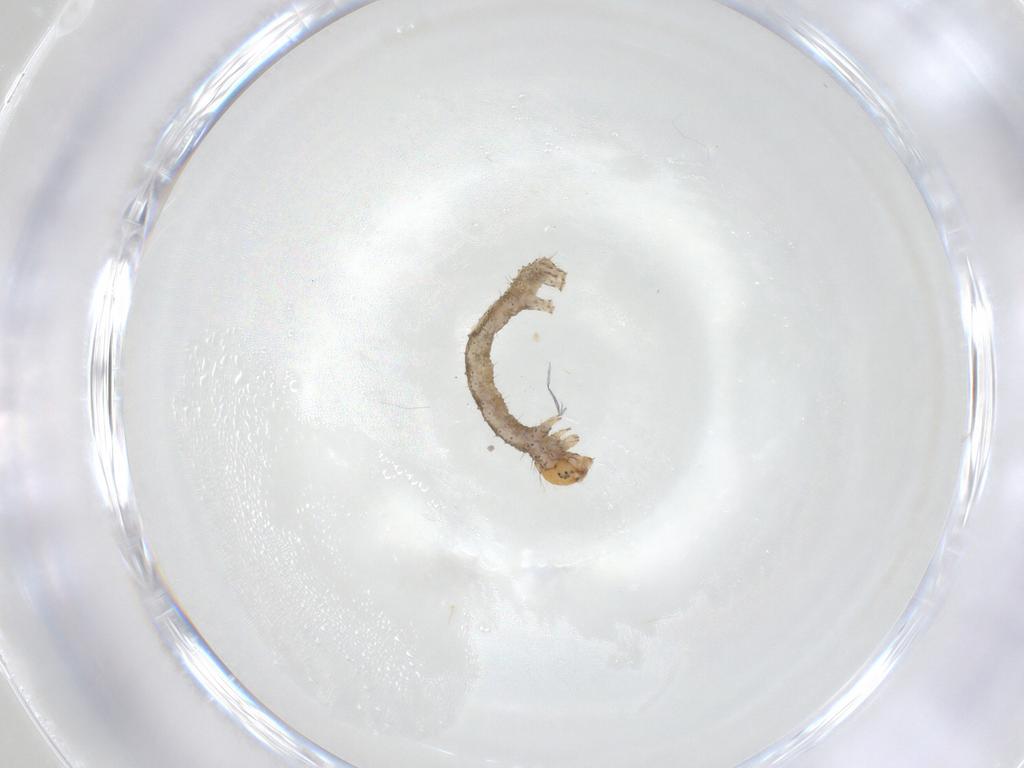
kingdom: Animalia
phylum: Arthropoda
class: Insecta
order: Lepidoptera
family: Geometridae
